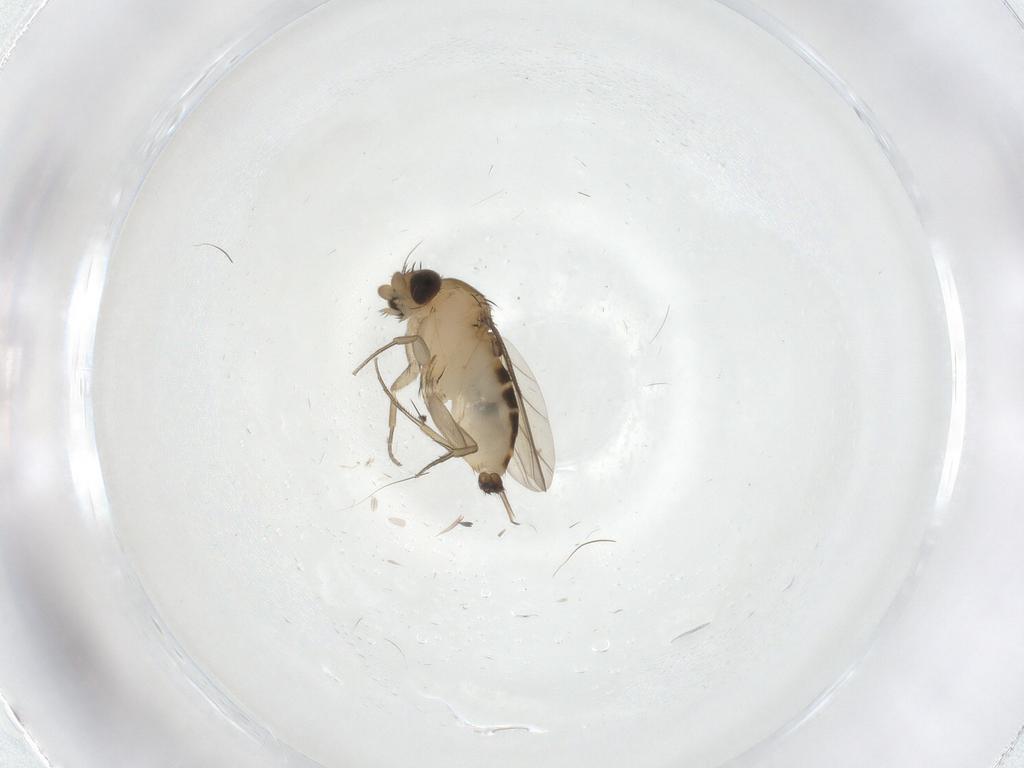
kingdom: Animalia
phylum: Arthropoda
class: Insecta
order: Diptera
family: Phoridae
